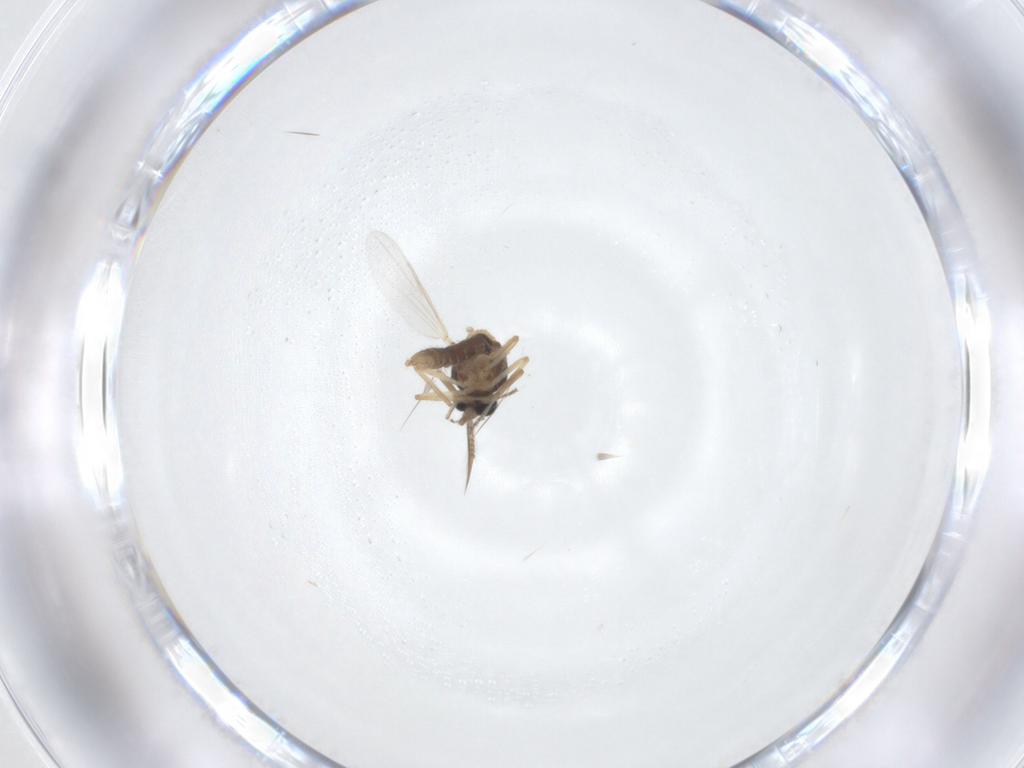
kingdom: Animalia
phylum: Arthropoda
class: Insecta
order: Diptera
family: Ceratopogonidae
